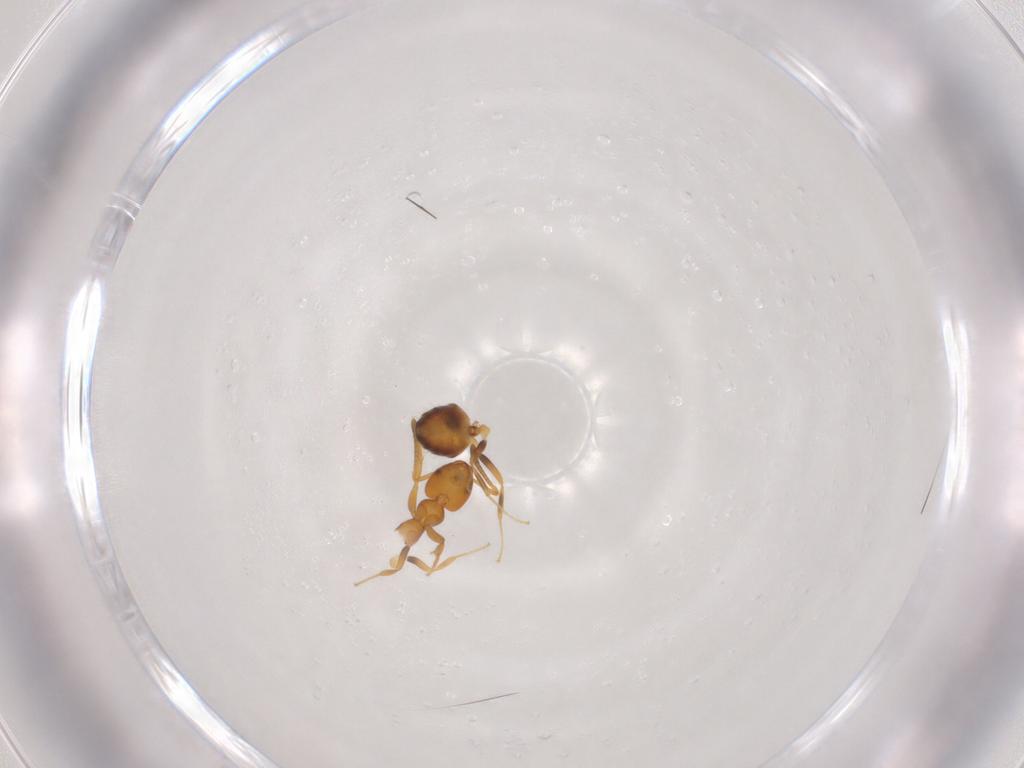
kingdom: Animalia
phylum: Arthropoda
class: Insecta
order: Hymenoptera
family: Formicidae
